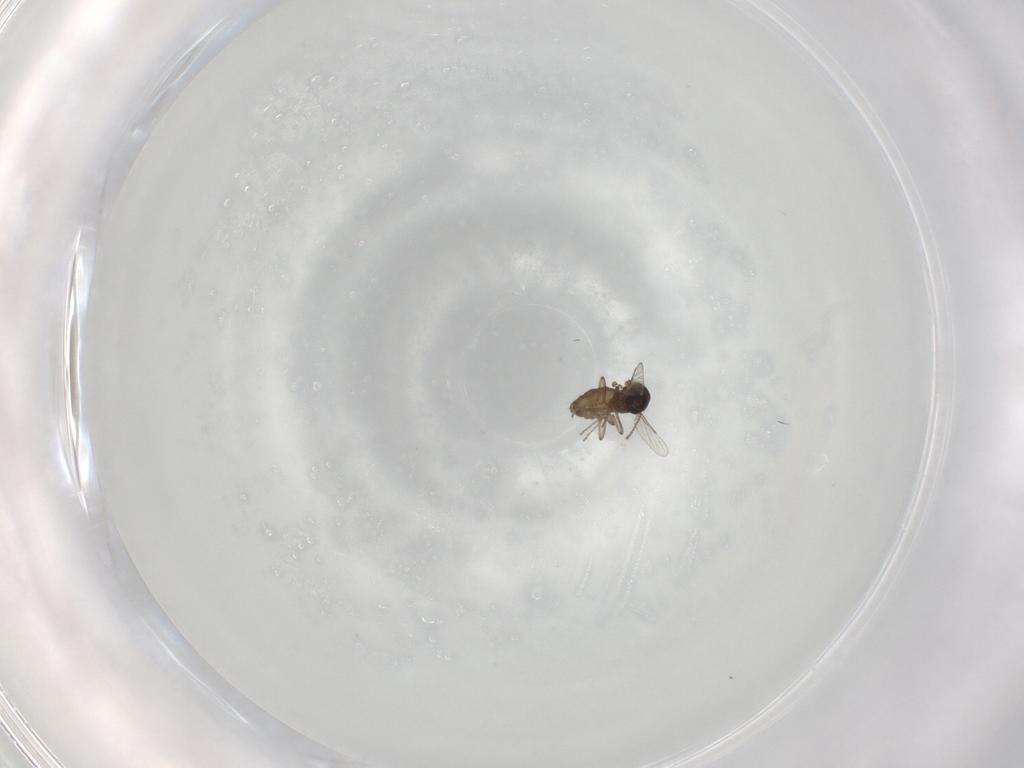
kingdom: Animalia
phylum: Arthropoda
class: Insecta
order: Diptera
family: Ceratopogonidae
